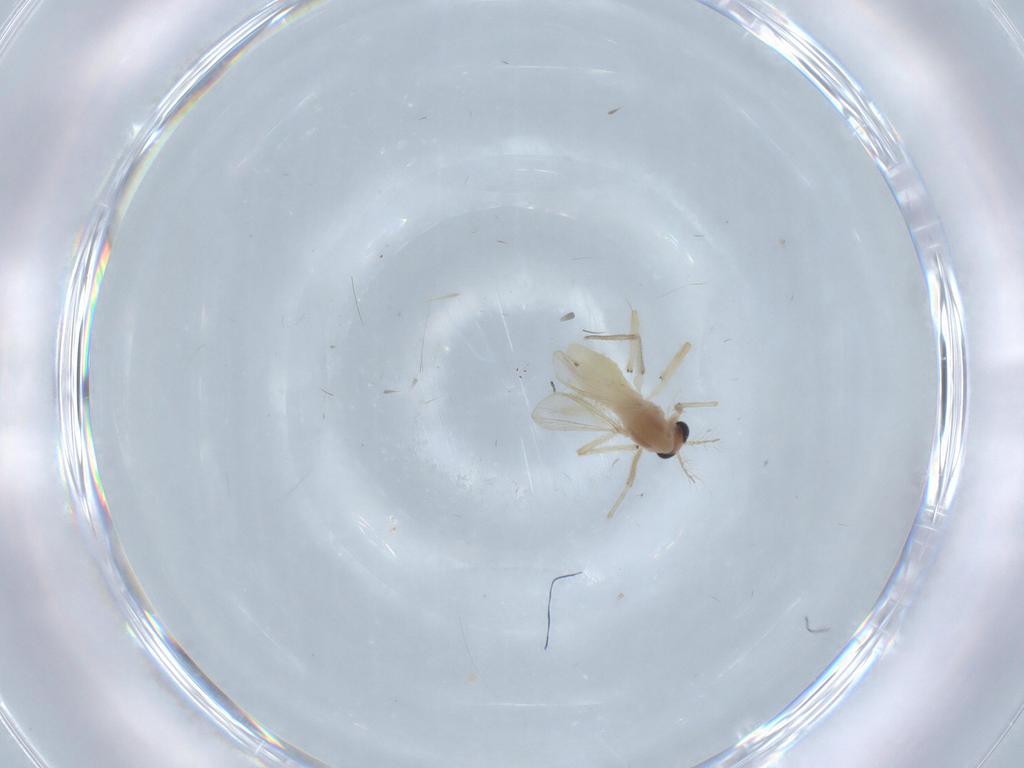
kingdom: Animalia
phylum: Arthropoda
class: Insecta
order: Diptera
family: Chironomidae
